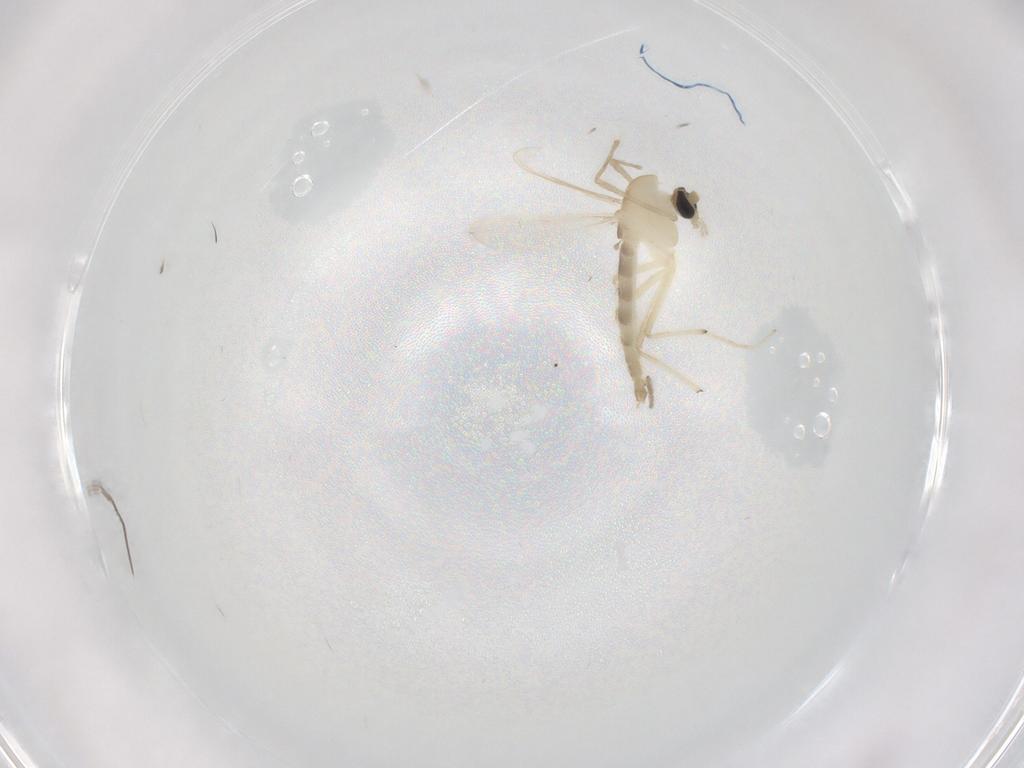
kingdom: Animalia
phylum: Arthropoda
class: Insecta
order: Diptera
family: Chironomidae
